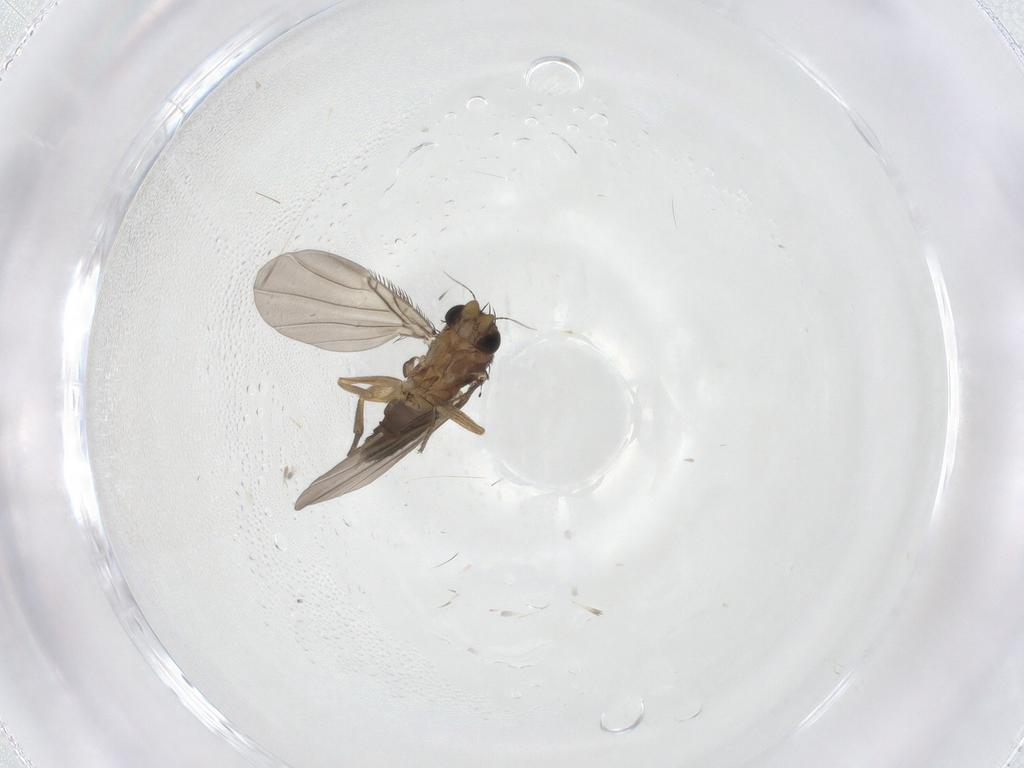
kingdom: Animalia
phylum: Arthropoda
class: Insecta
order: Diptera
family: Phoridae
